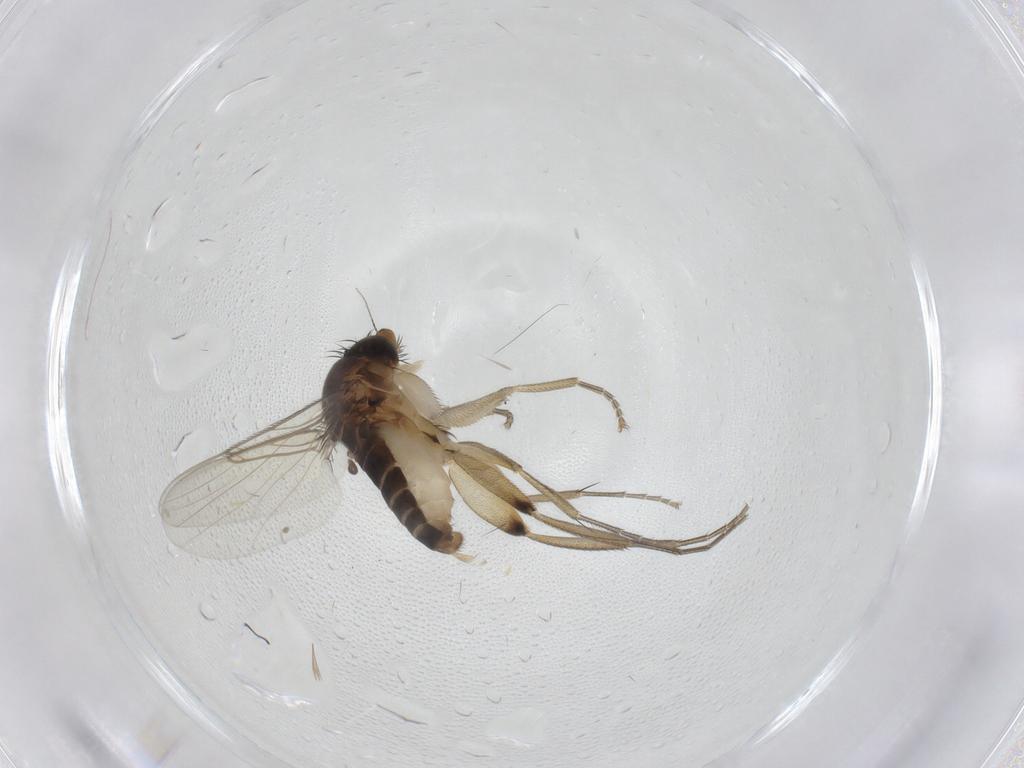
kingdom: Animalia
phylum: Arthropoda
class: Insecta
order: Diptera
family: Phoridae
